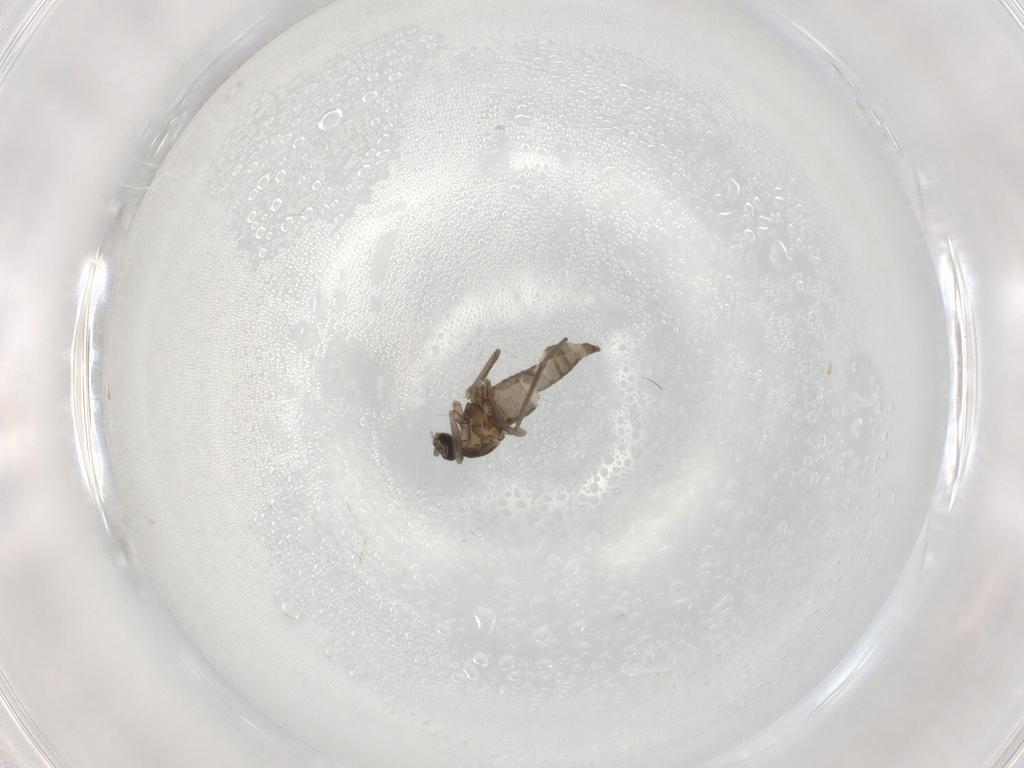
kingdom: Animalia
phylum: Arthropoda
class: Insecta
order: Diptera
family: Cecidomyiidae
